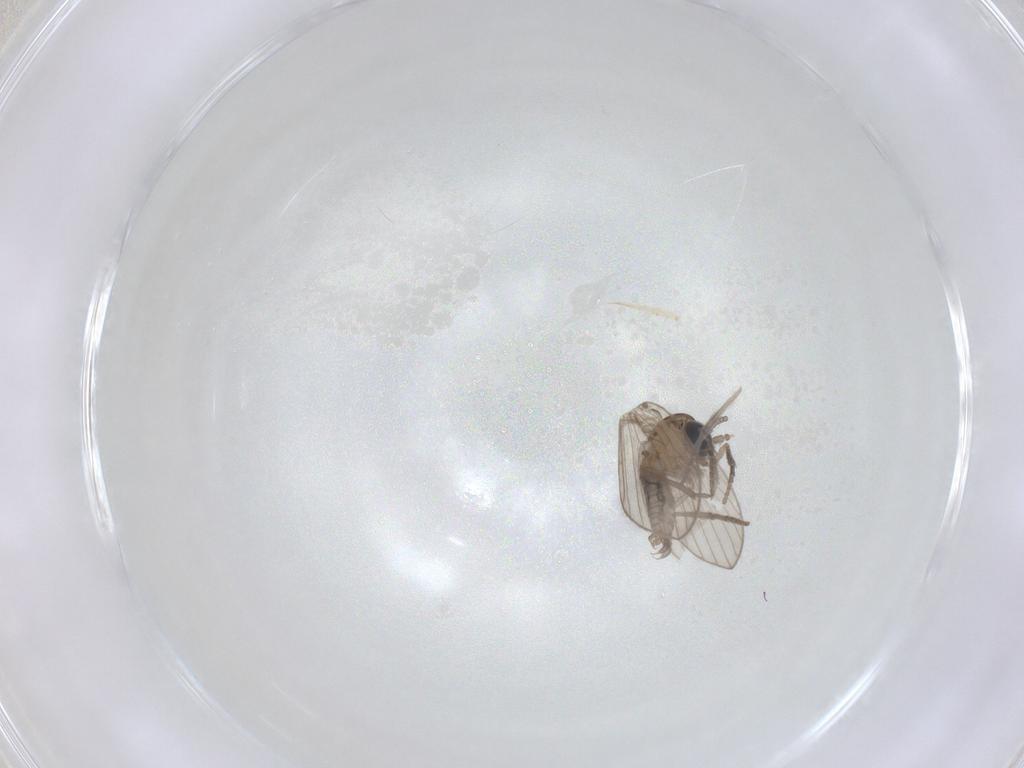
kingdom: Animalia
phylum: Arthropoda
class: Insecta
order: Diptera
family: Psychodidae
